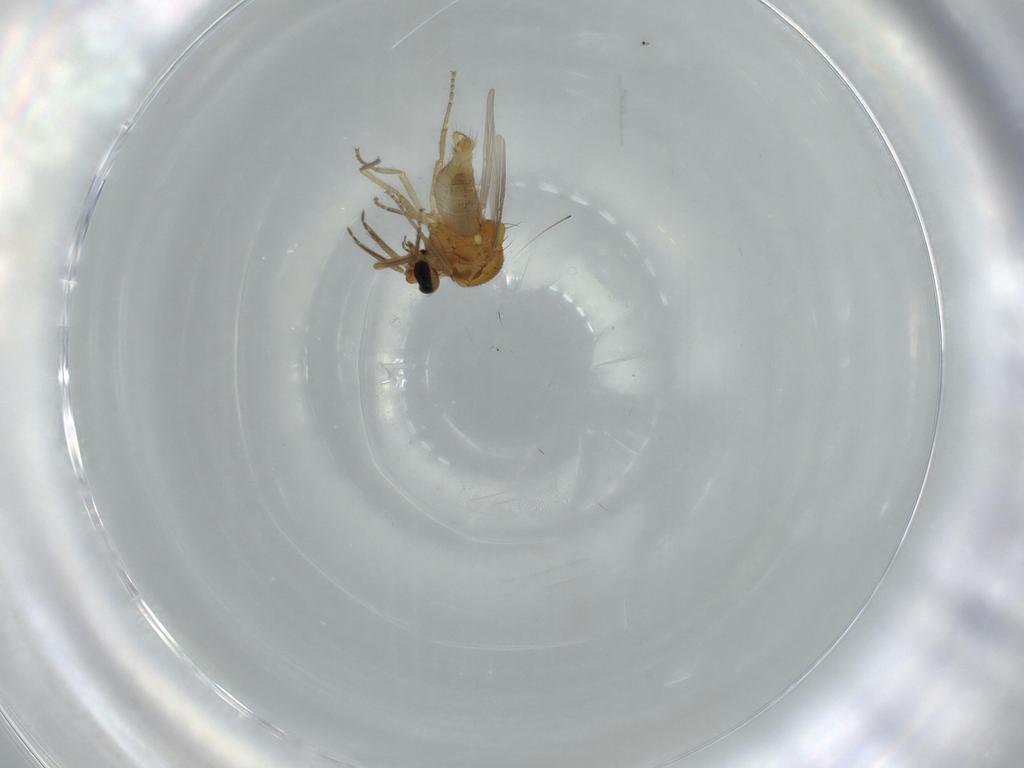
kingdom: Animalia
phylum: Arthropoda
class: Insecta
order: Diptera
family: Ceratopogonidae
